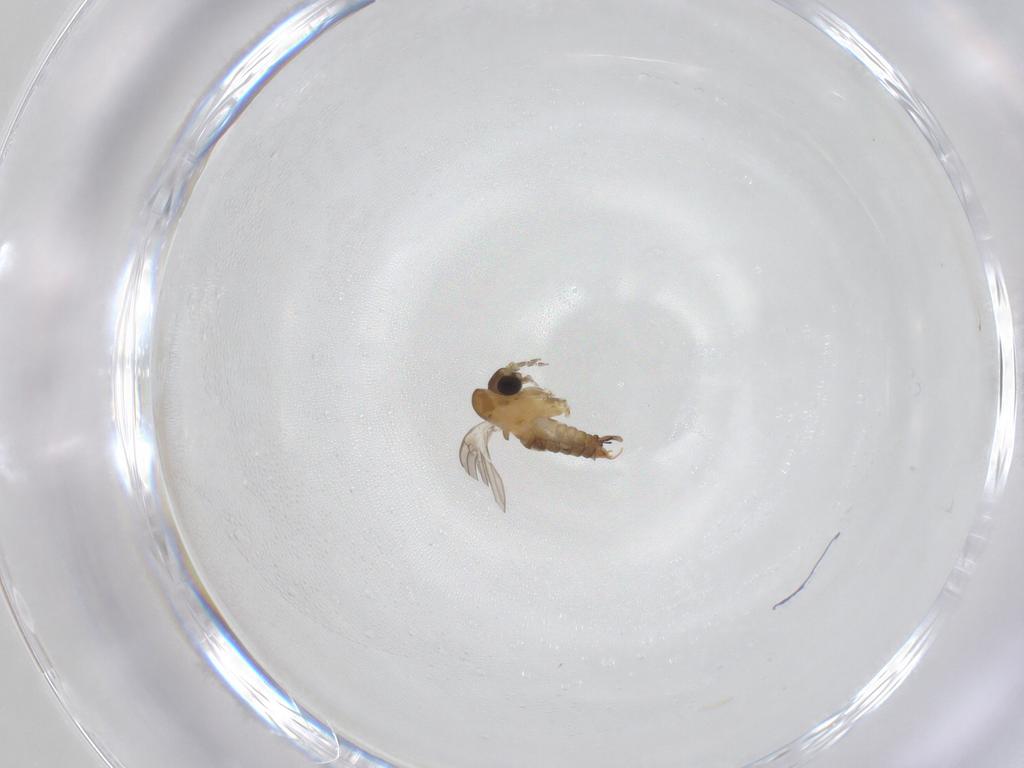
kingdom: Animalia
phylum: Arthropoda
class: Insecta
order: Diptera
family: Psychodidae
